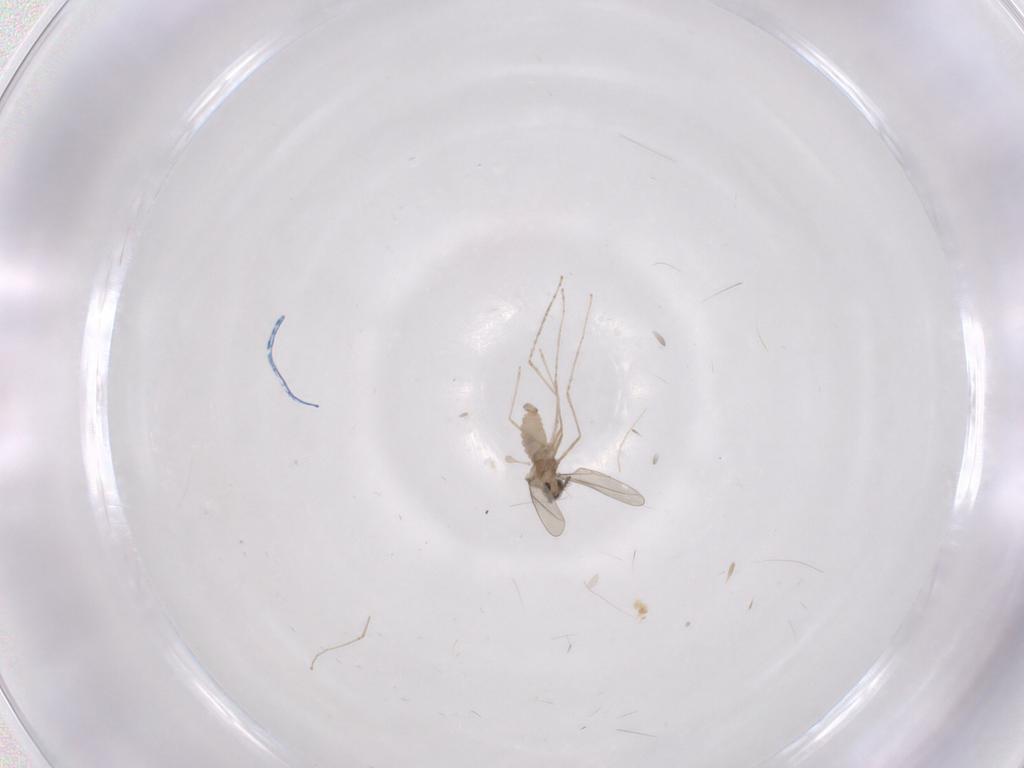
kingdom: Animalia
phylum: Arthropoda
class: Insecta
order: Diptera
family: Cecidomyiidae
